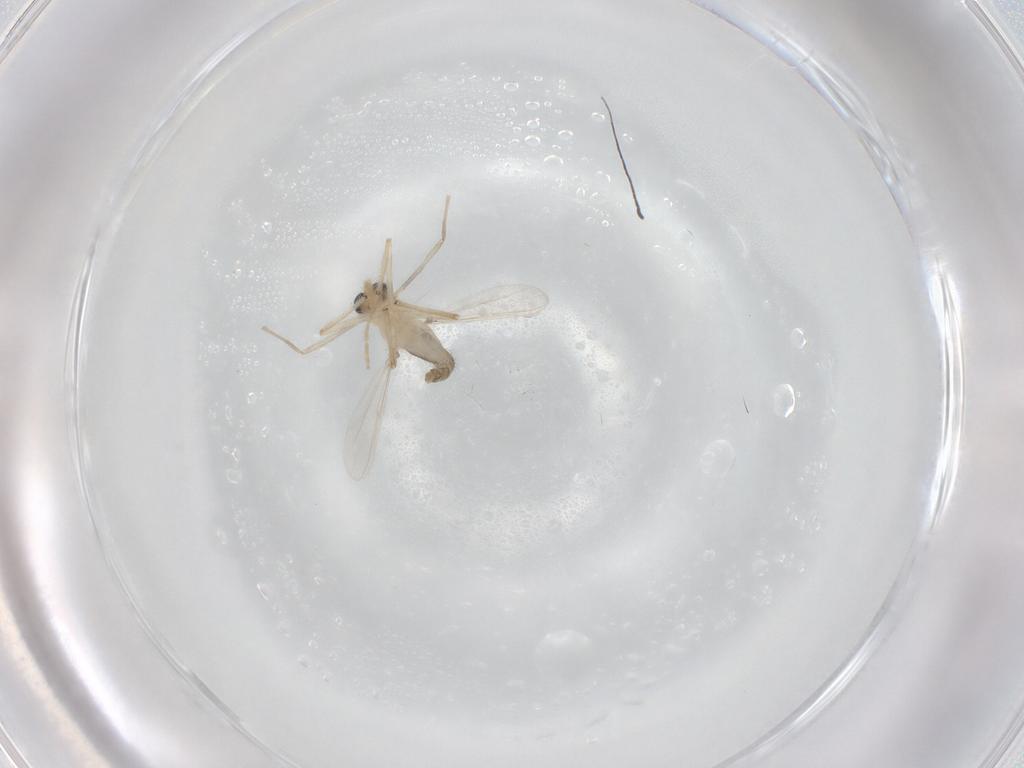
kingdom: Animalia
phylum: Arthropoda
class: Insecta
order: Diptera
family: Chironomidae
